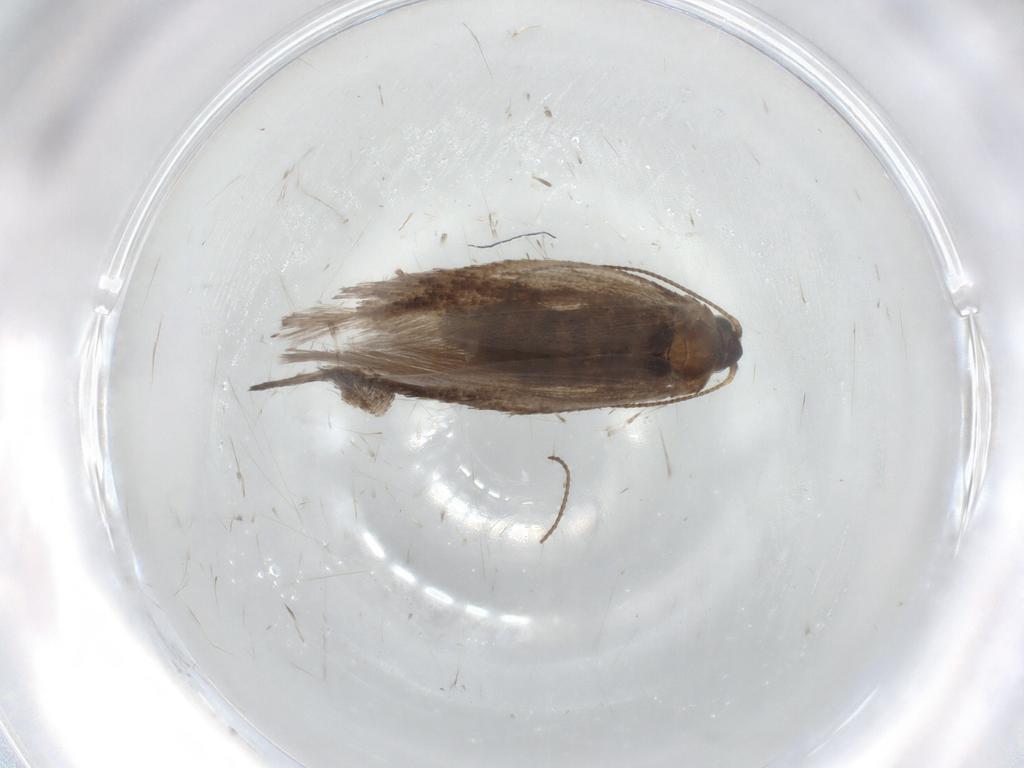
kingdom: Animalia
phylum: Arthropoda
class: Insecta
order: Lepidoptera
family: Nepticulidae
